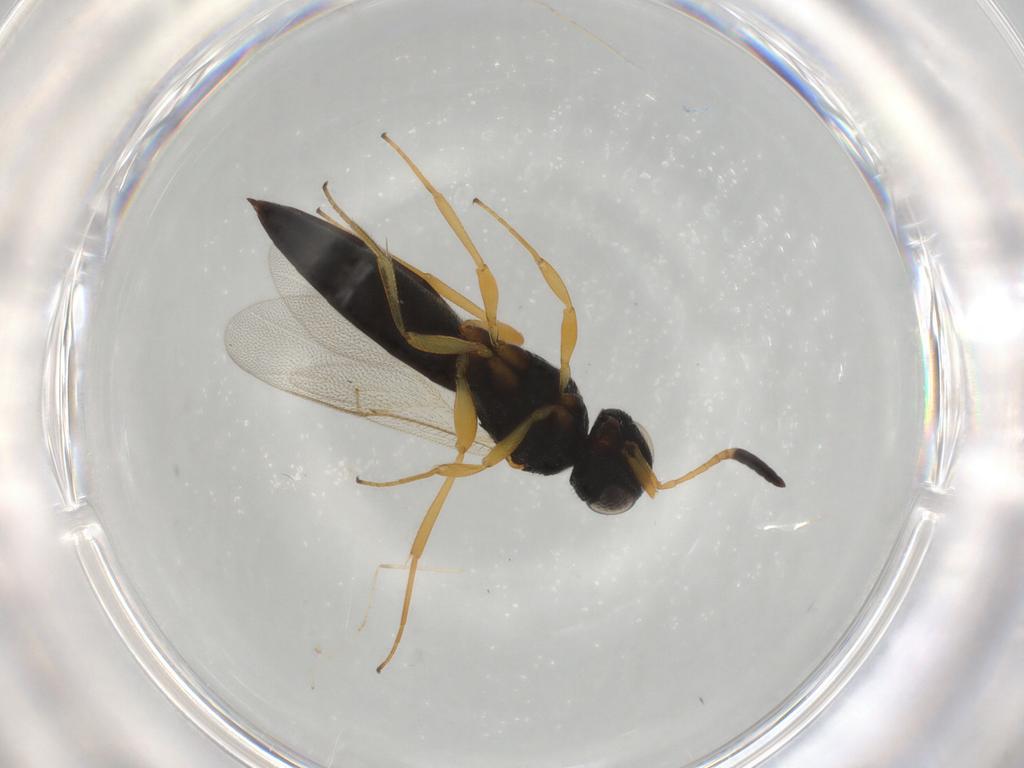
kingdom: Animalia
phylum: Arthropoda
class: Insecta
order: Hymenoptera
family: Scelionidae
